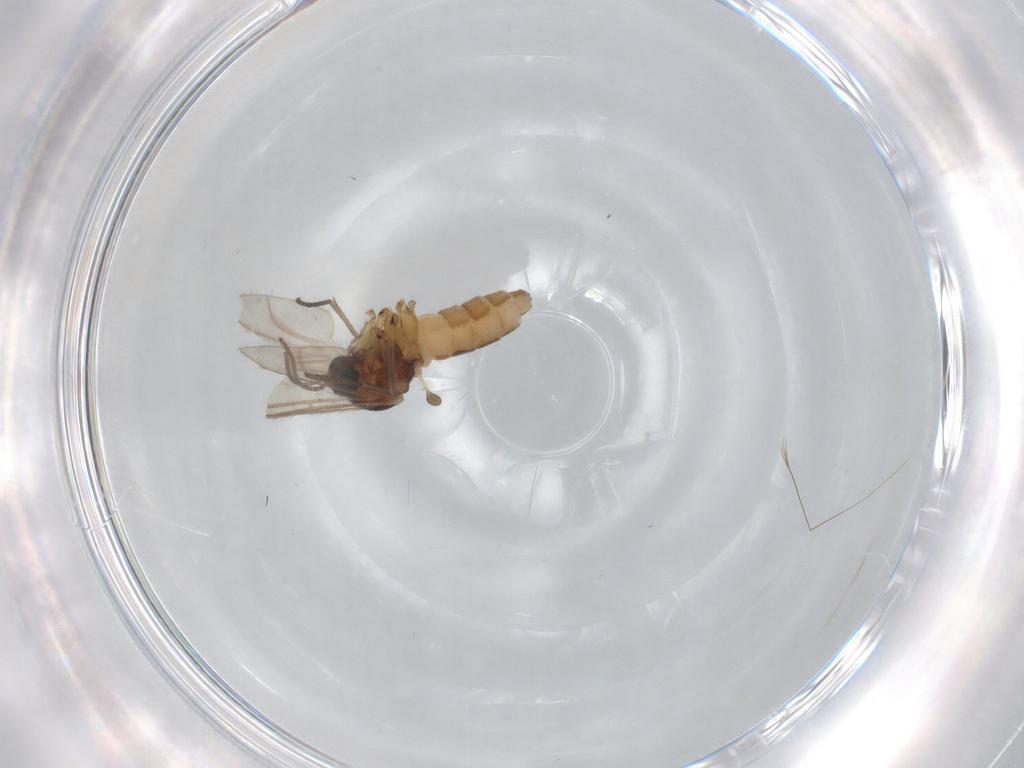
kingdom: Animalia
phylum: Arthropoda
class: Insecta
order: Diptera
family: Sciaridae
